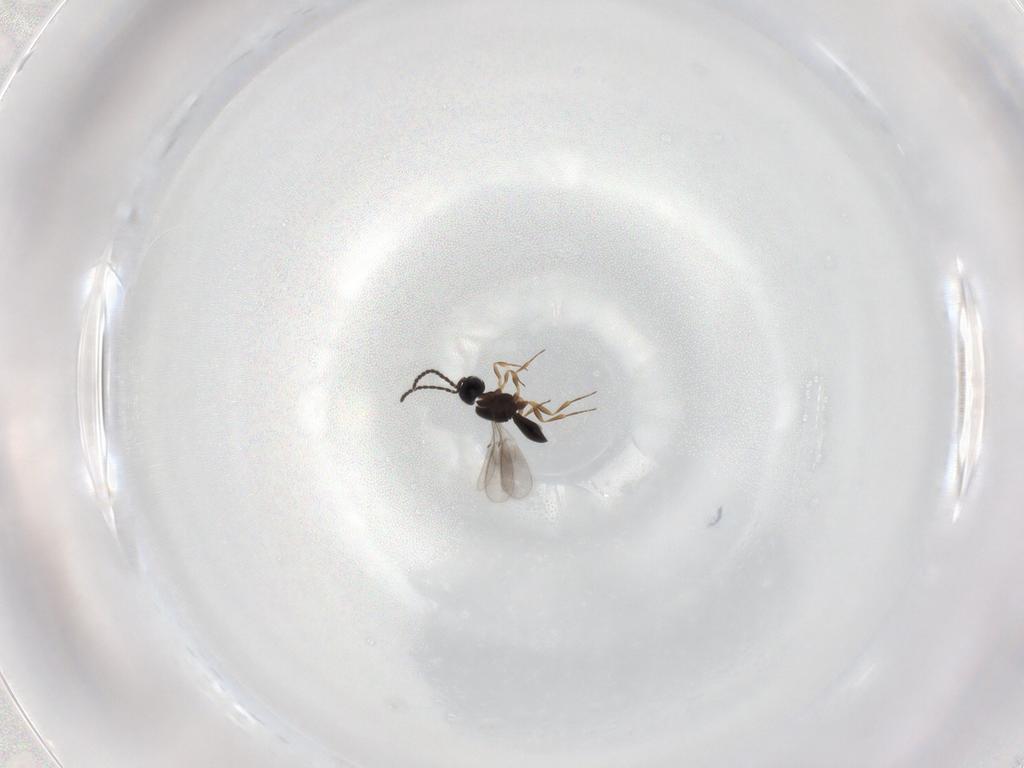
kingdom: Animalia
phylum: Arthropoda
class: Insecta
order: Hymenoptera
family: Scelionidae
